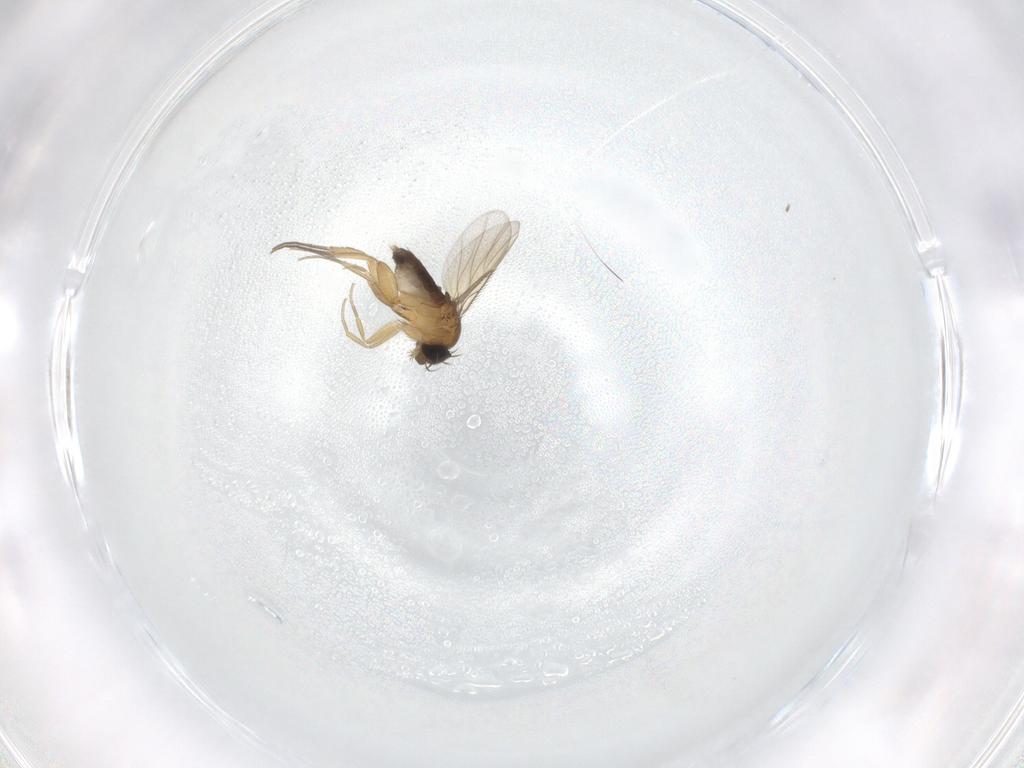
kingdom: Animalia
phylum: Arthropoda
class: Insecta
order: Diptera
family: Phoridae
